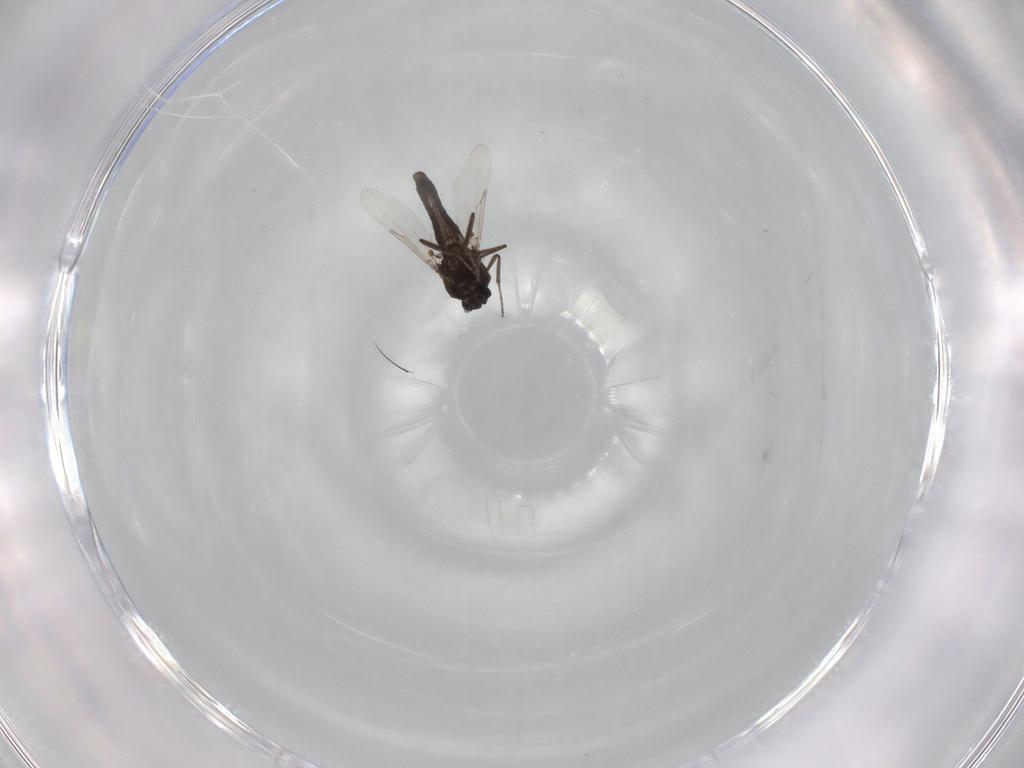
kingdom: Animalia
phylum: Arthropoda
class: Insecta
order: Diptera
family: Ceratopogonidae
